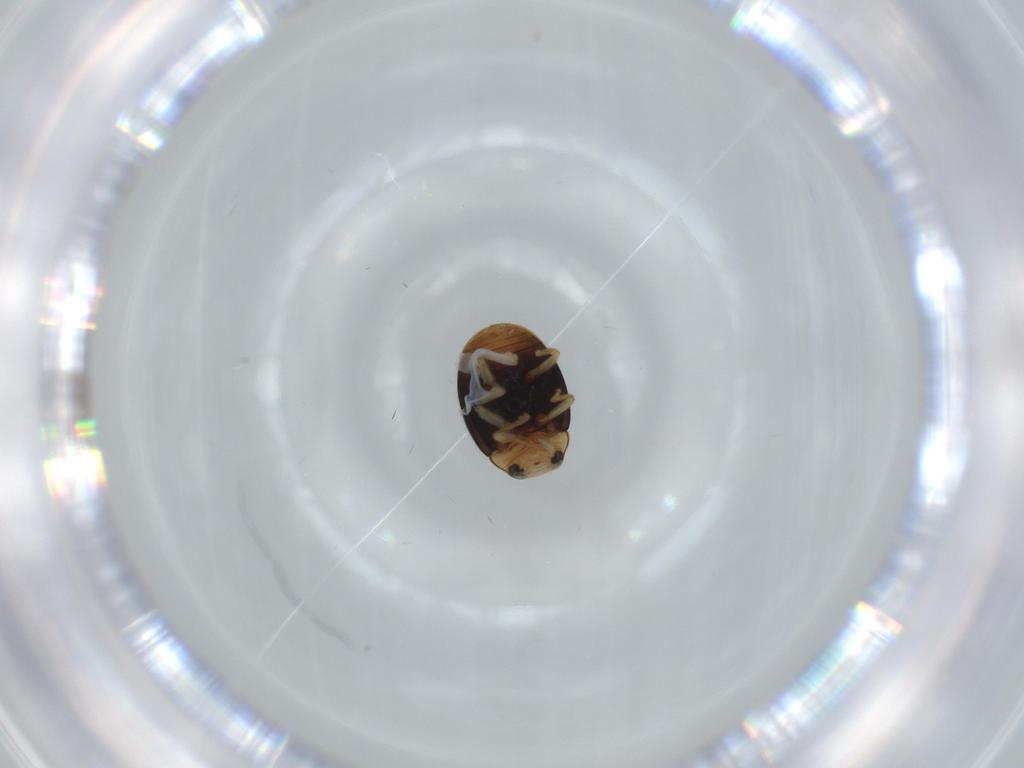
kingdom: Animalia
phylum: Arthropoda
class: Insecta
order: Coleoptera
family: Coccinellidae
